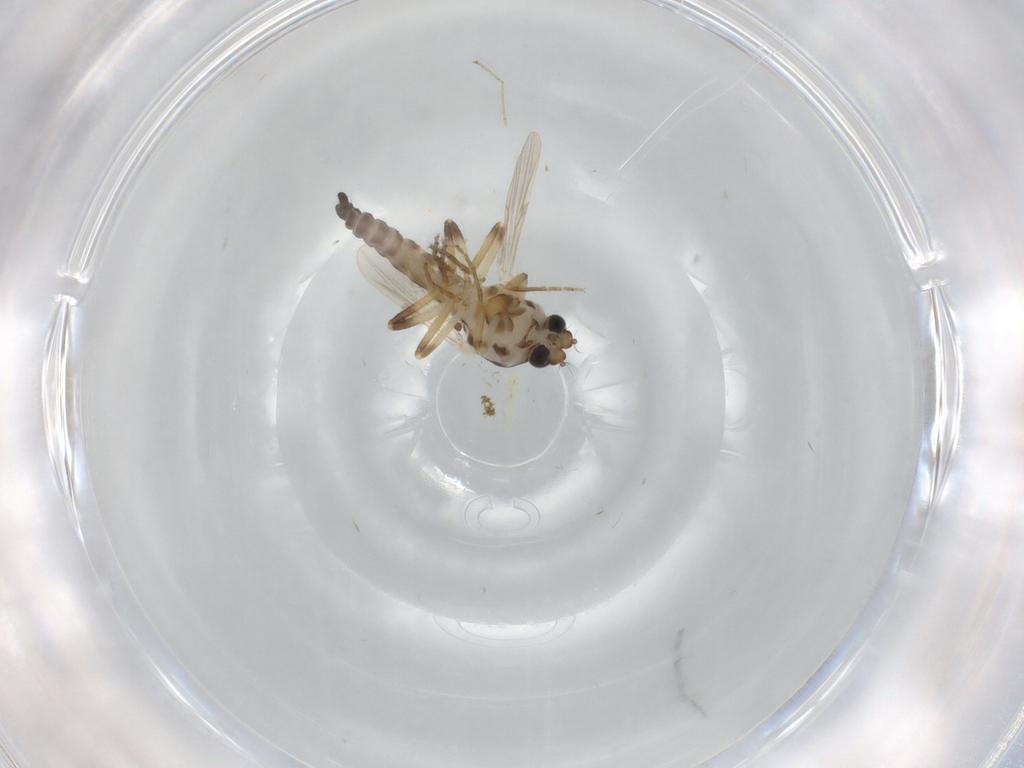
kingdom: Animalia
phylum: Arthropoda
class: Insecta
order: Diptera
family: Ceratopogonidae
